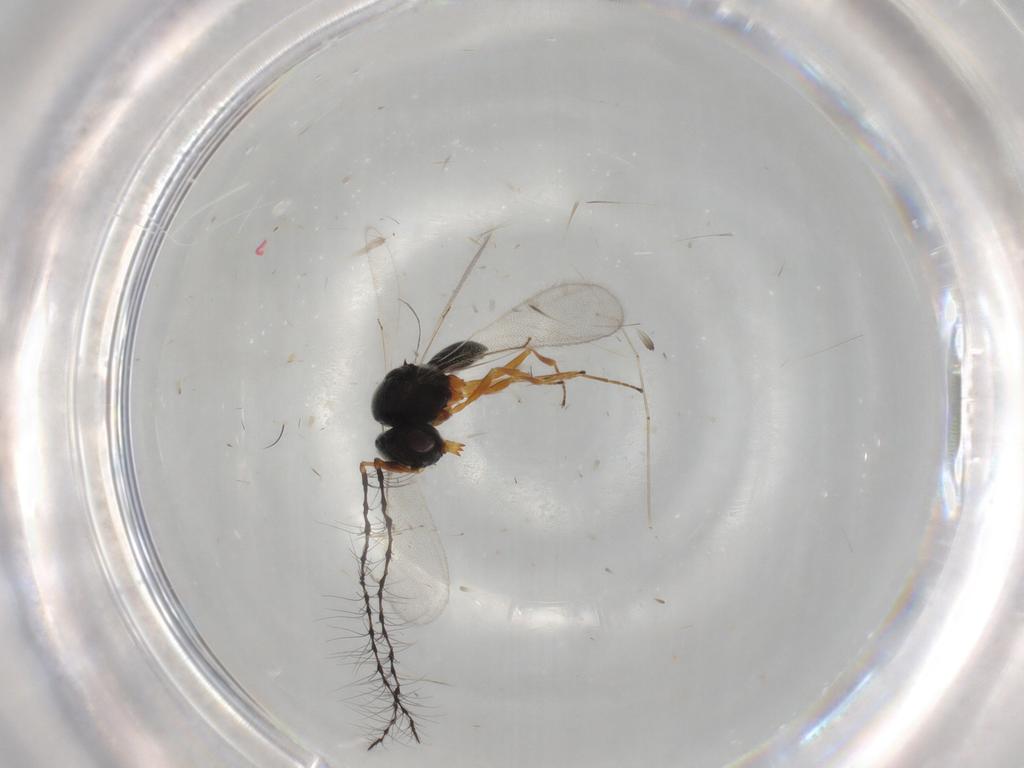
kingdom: Animalia
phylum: Arthropoda
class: Insecta
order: Hymenoptera
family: Scelionidae
